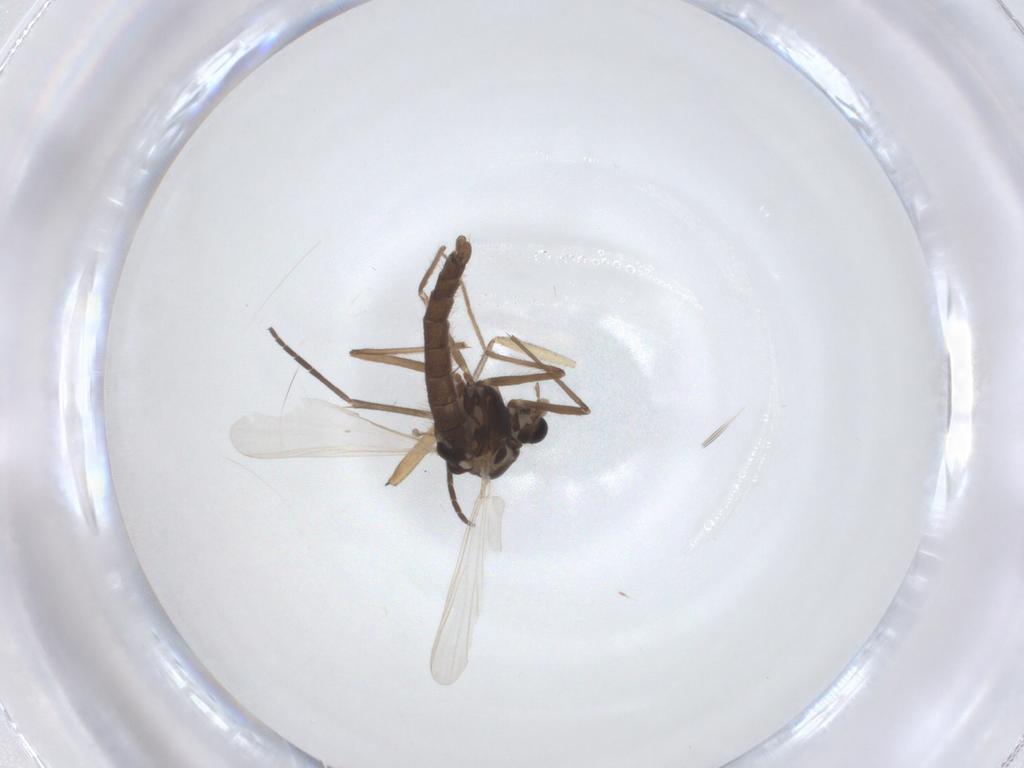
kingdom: Animalia
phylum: Arthropoda
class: Insecta
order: Diptera
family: Chironomidae
